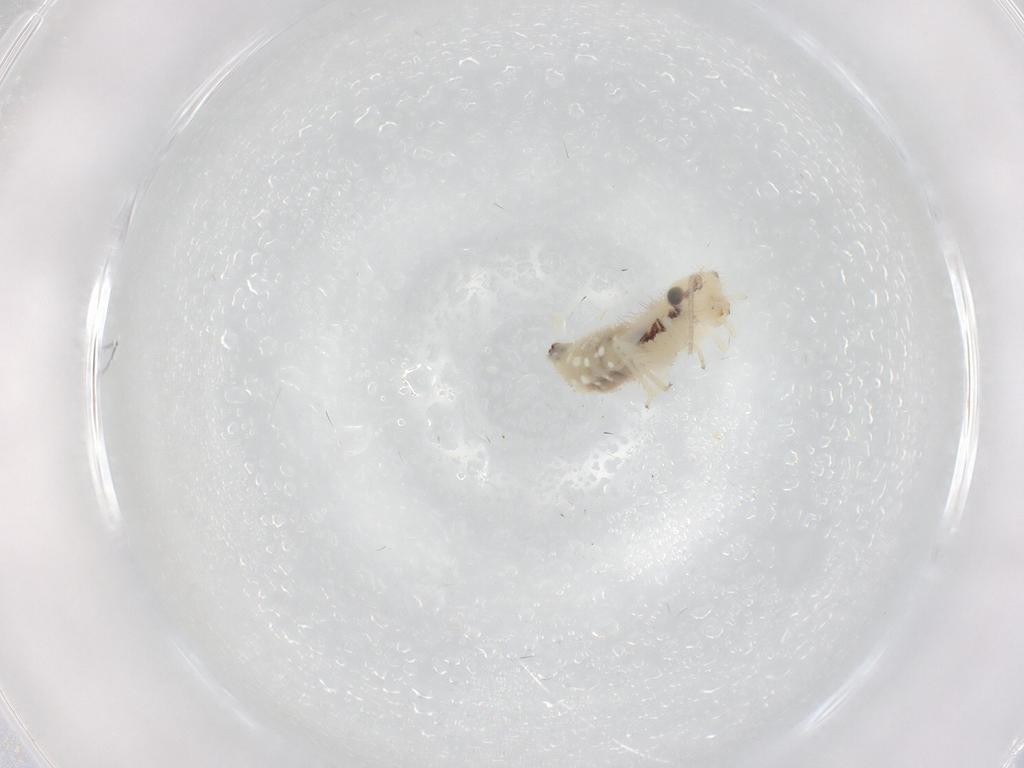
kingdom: Animalia
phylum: Arthropoda
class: Insecta
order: Psocodea
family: Philotarsidae
